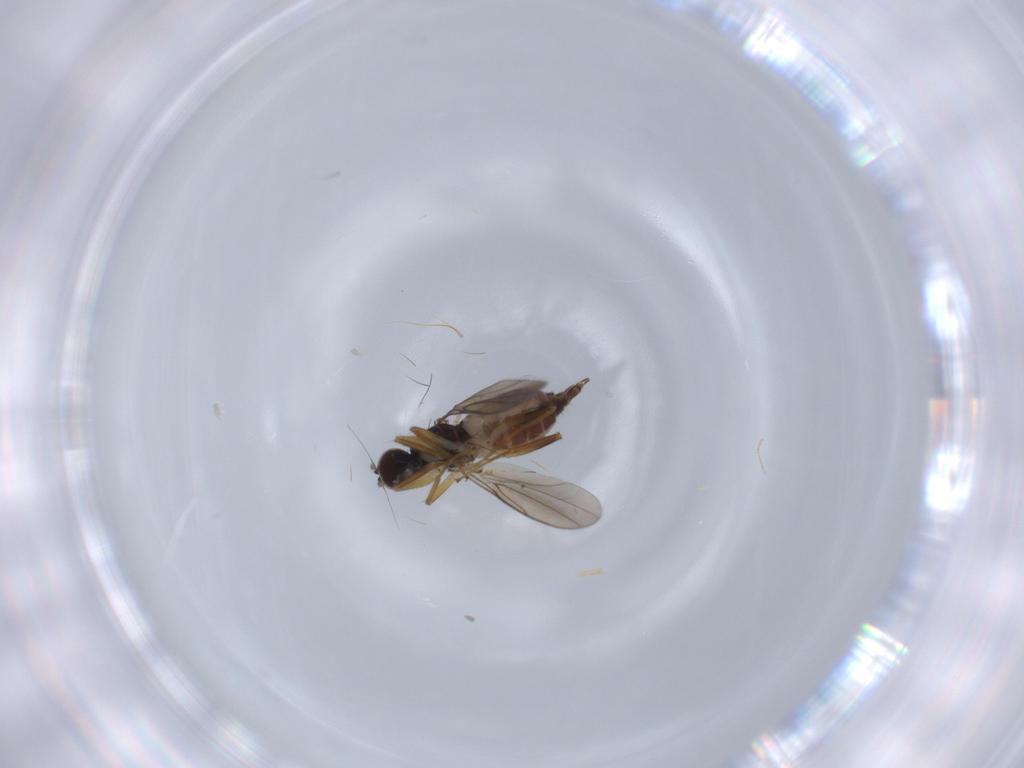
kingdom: Animalia
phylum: Arthropoda
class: Insecta
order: Diptera
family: Hybotidae
